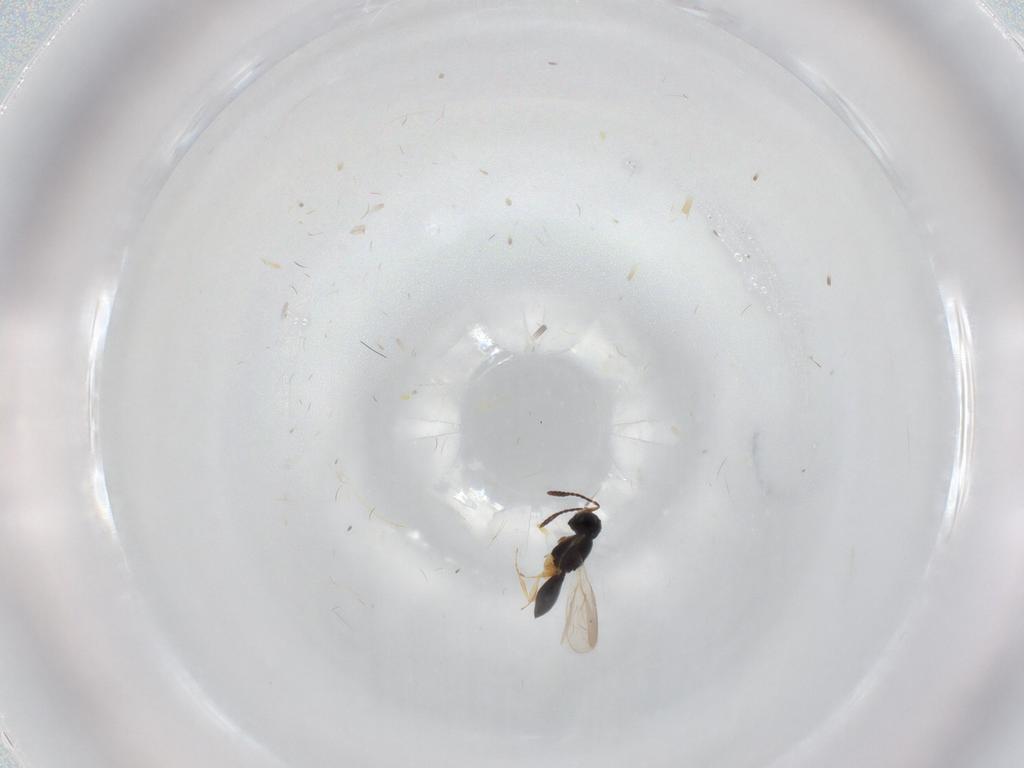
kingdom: Animalia
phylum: Arthropoda
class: Insecta
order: Hymenoptera
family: Scelionidae
